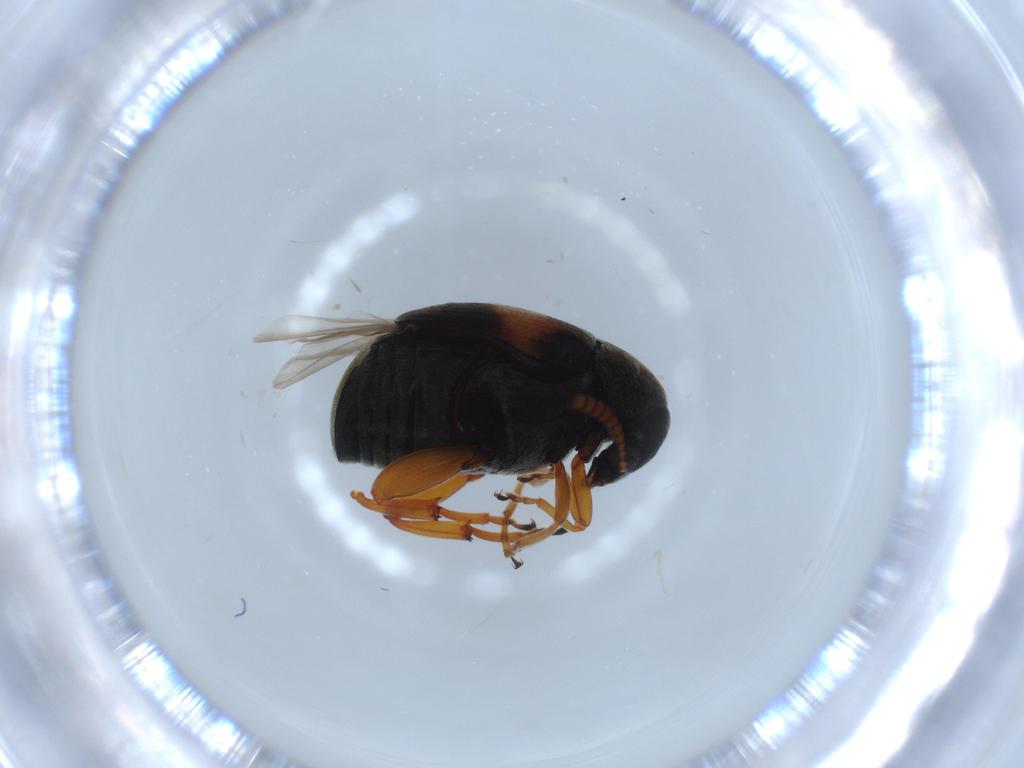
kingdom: Animalia
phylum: Arthropoda
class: Insecta
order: Coleoptera
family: Chrysomelidae
